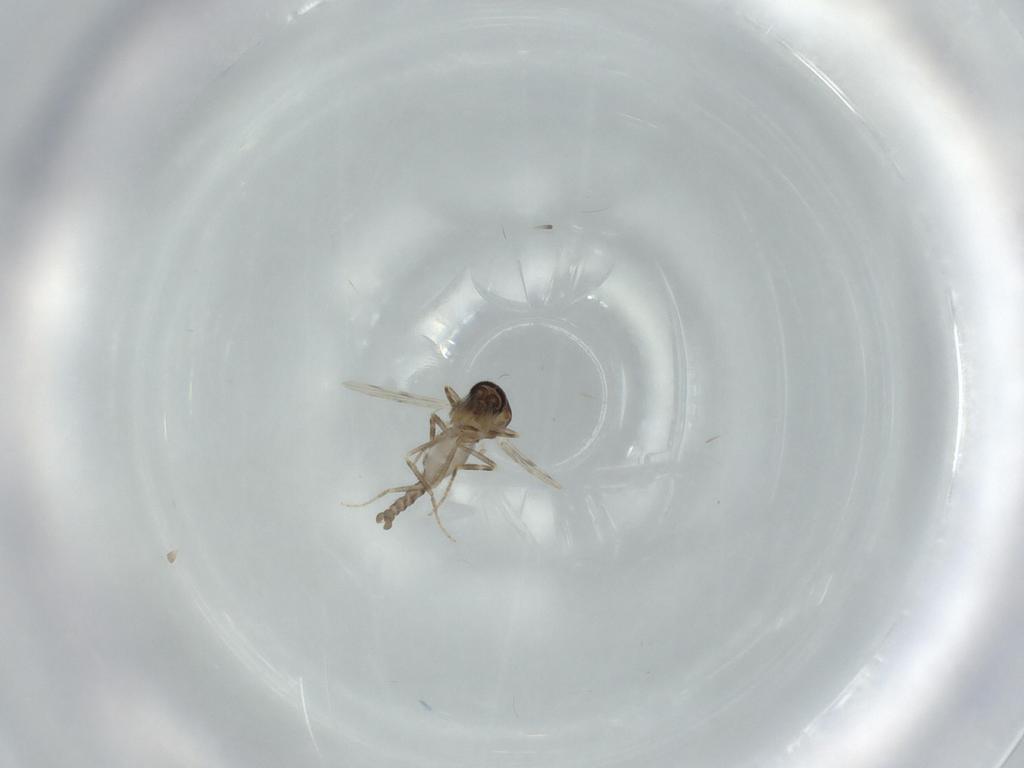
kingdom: Animalia
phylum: Arthropoda
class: Insecta
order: Diptera
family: Ceratopogonidae
